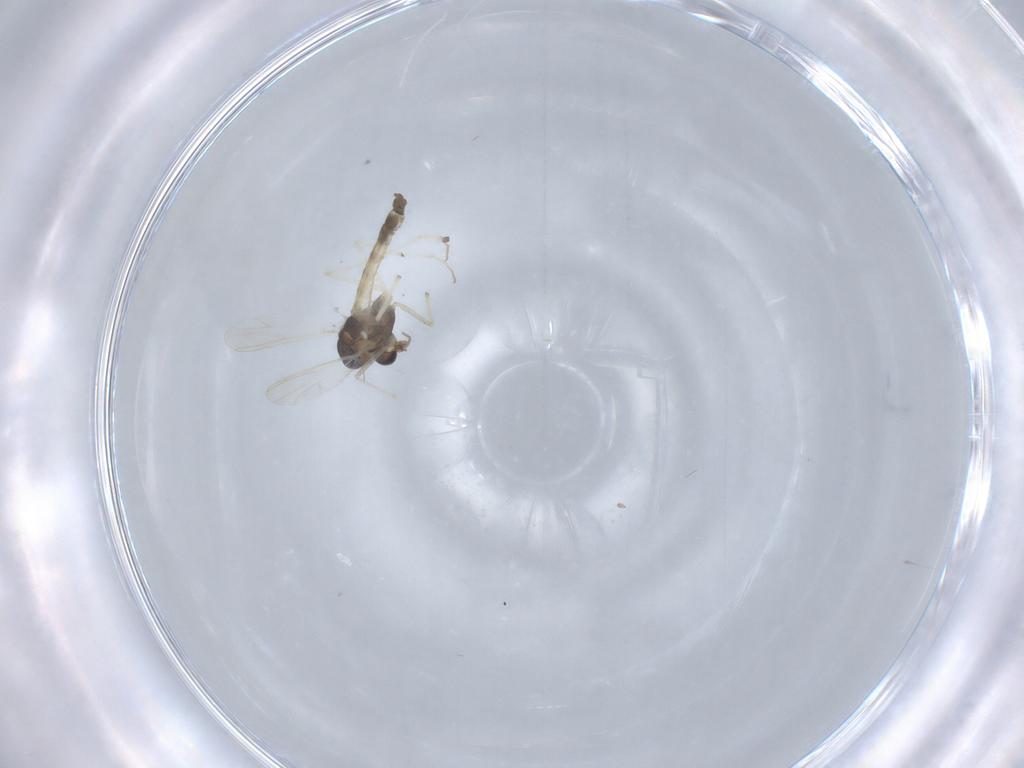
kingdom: Animalia
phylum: Arthropoda
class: Insecta
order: Diptera
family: Chironomidae
